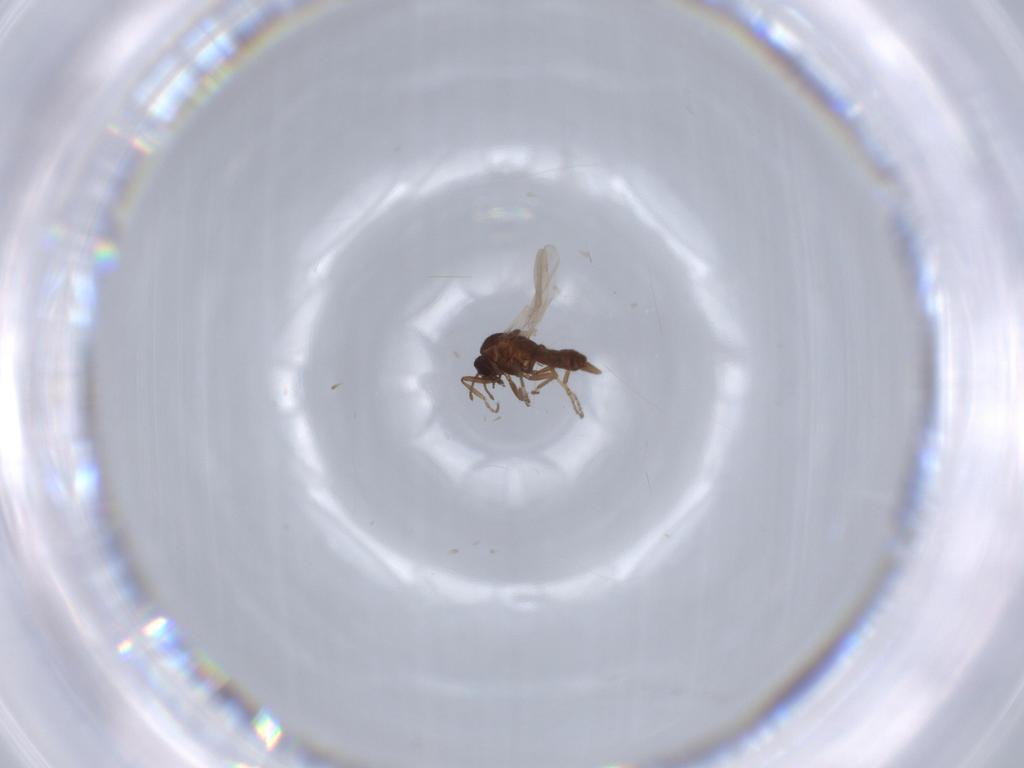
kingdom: Animalia
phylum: Arthropoda
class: Insecta
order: Diptera
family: Ceratopogonidae
